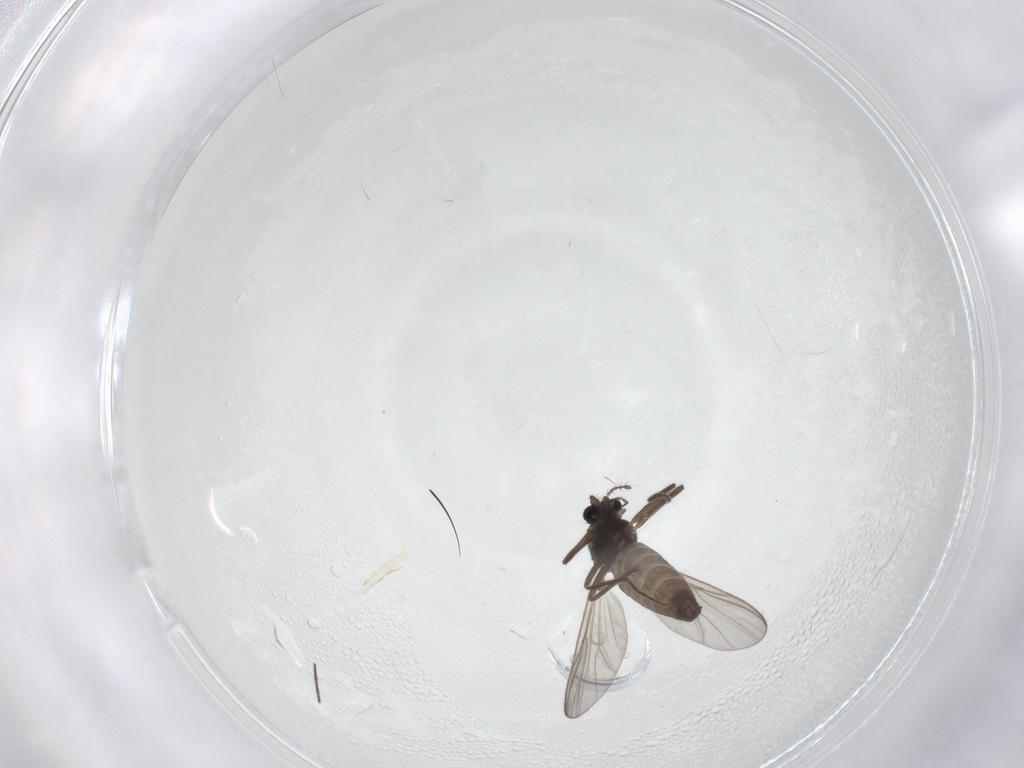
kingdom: Animalia
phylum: Arthropoda
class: Insecta
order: Diptera
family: Chironomidae
